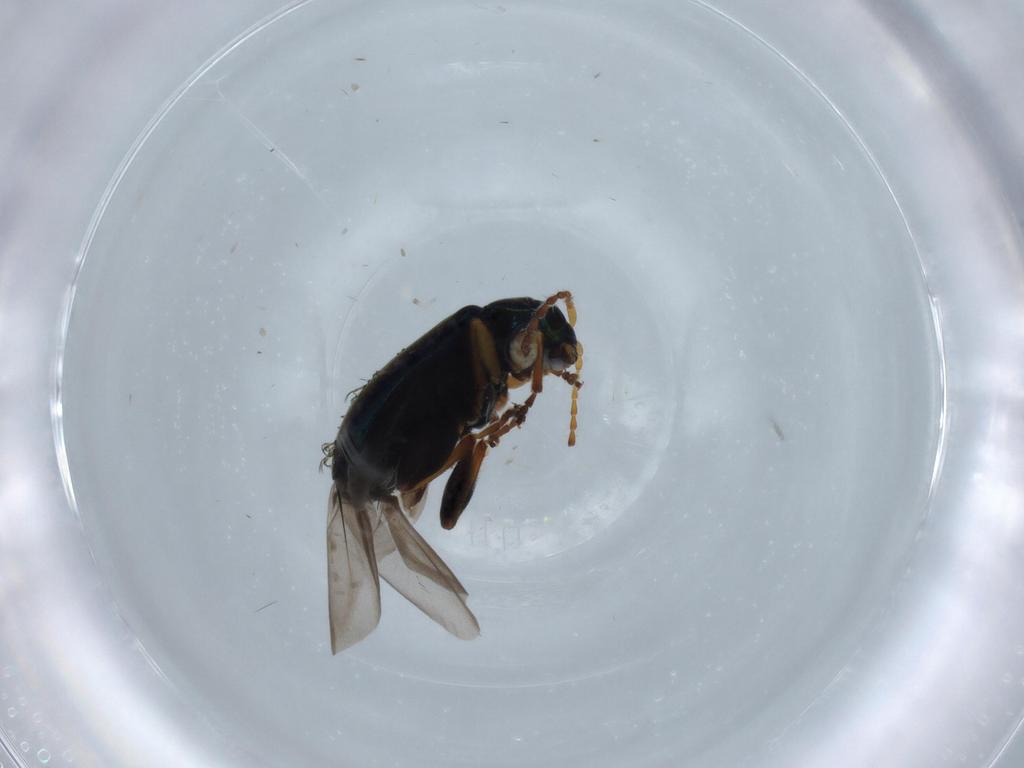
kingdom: Animalia
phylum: Arthropoda
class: Insecta
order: Coleoptera
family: Chrysomelidae
